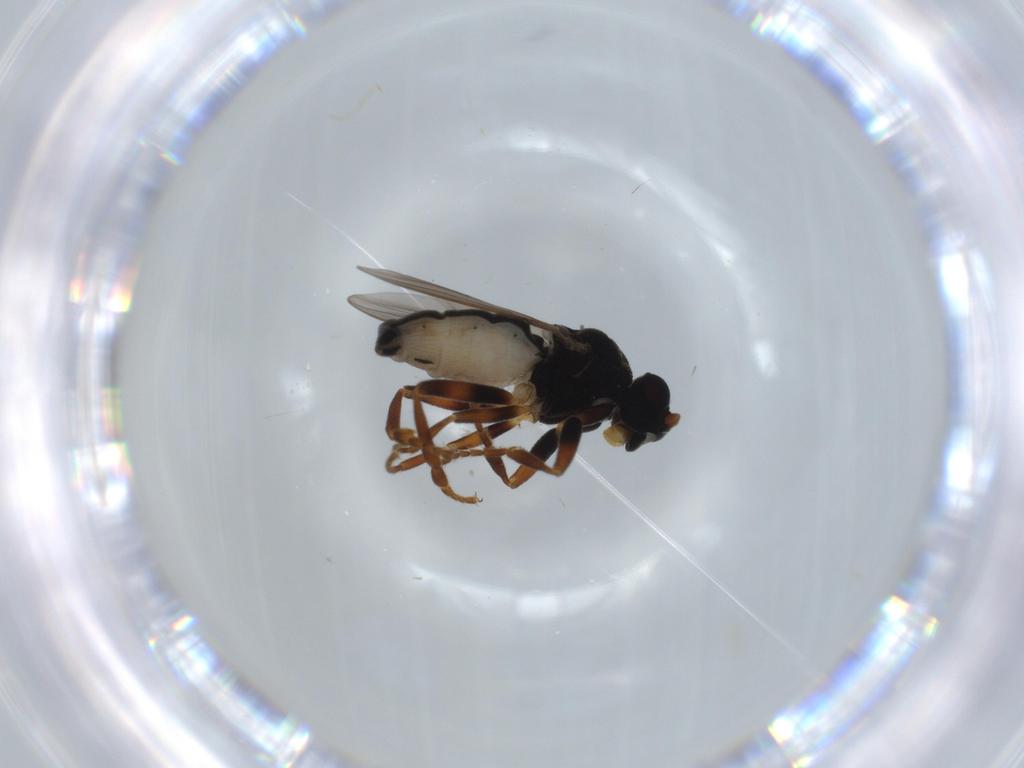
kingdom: Animalia
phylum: Arthropoda
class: Insecta
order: Diptera
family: Sphaeroceridae
